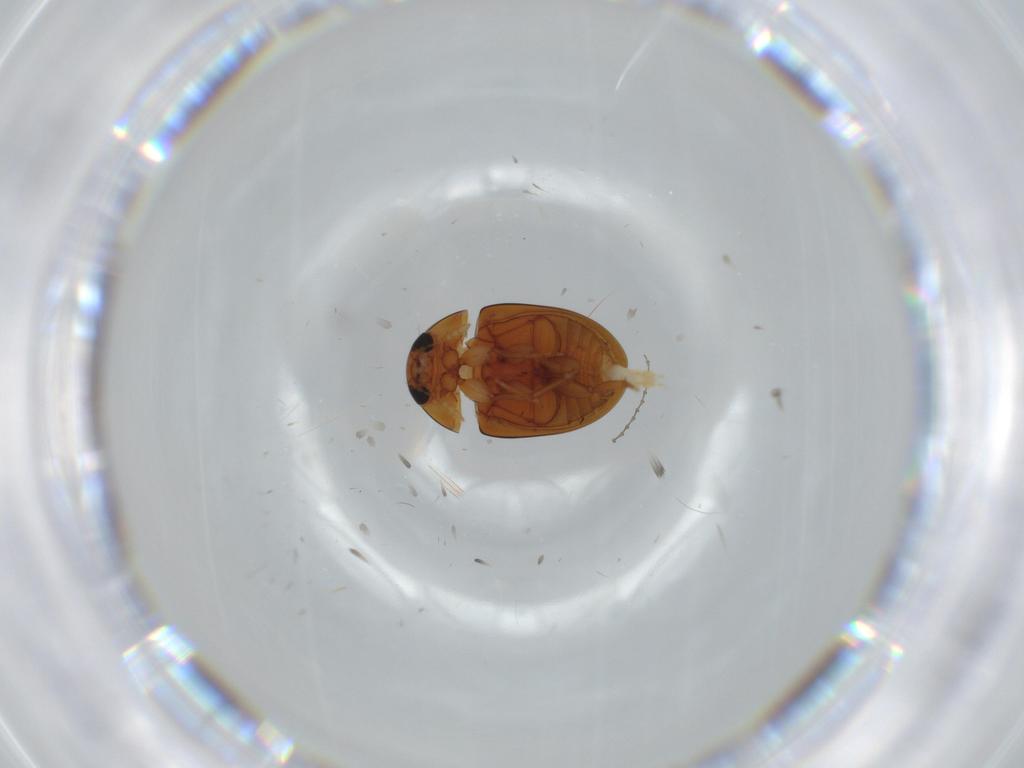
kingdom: Animalia
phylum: Arthropoda
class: Insecta
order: Coleoptera
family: Phalacridae
